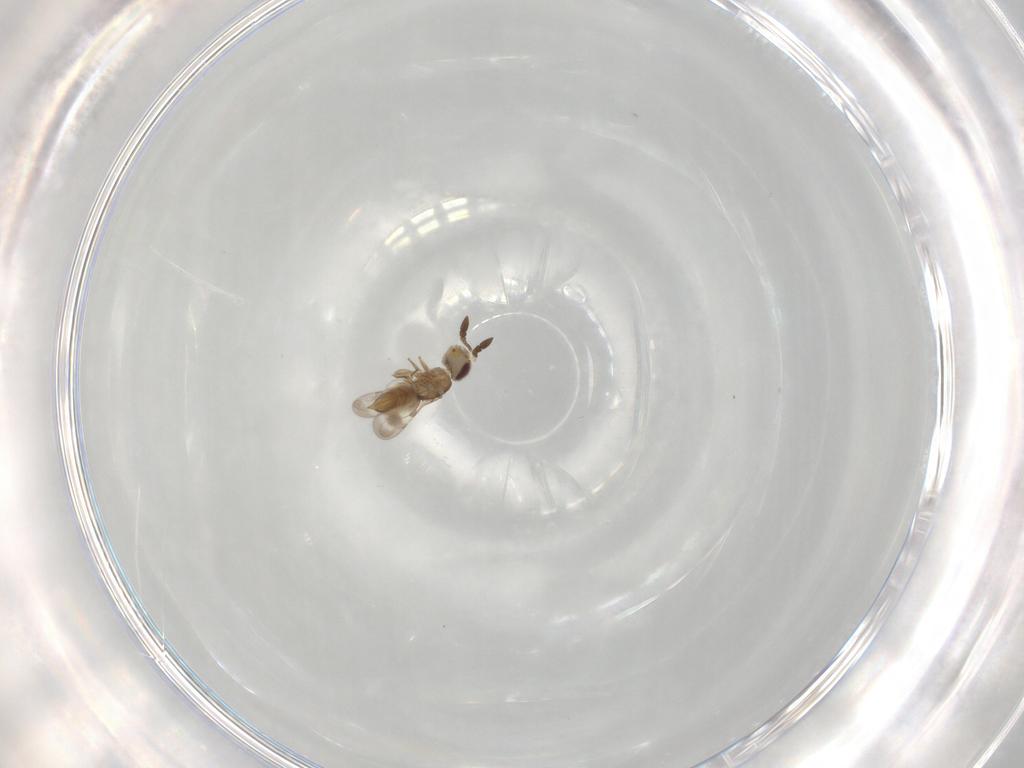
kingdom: Animalia
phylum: Arthropoda
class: Insecta
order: Hymenoptera
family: Ceraphronidae
